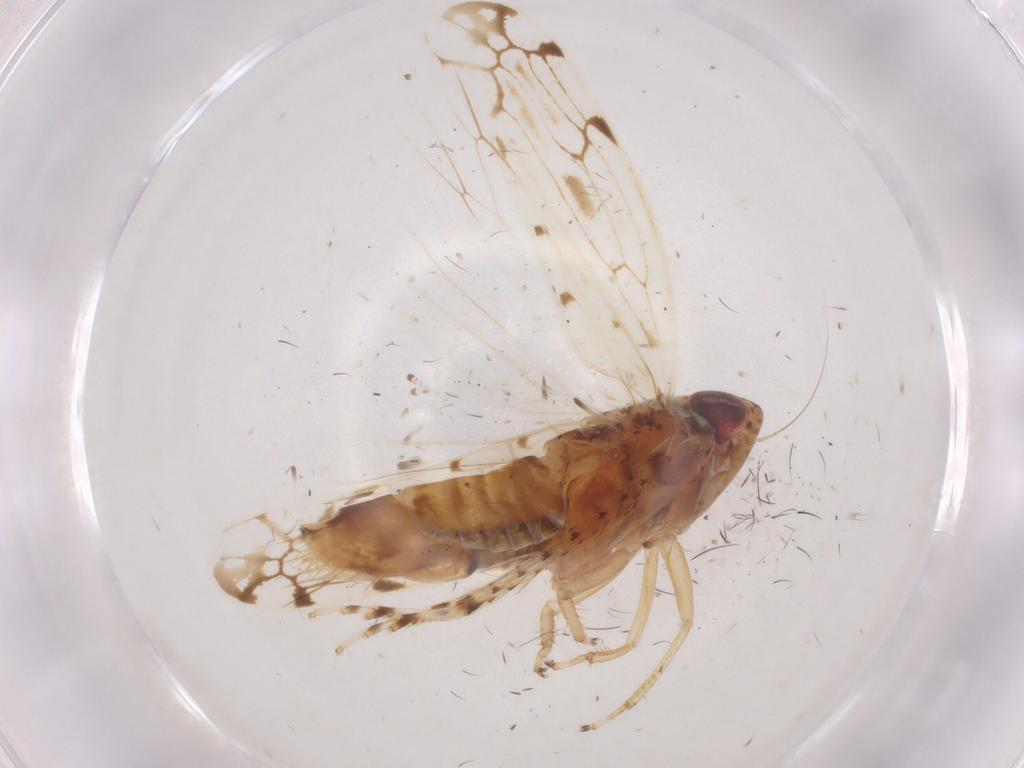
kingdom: Animalia
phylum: Arthropoda
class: Insecta
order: Hemiptera
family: Cicadellidae
